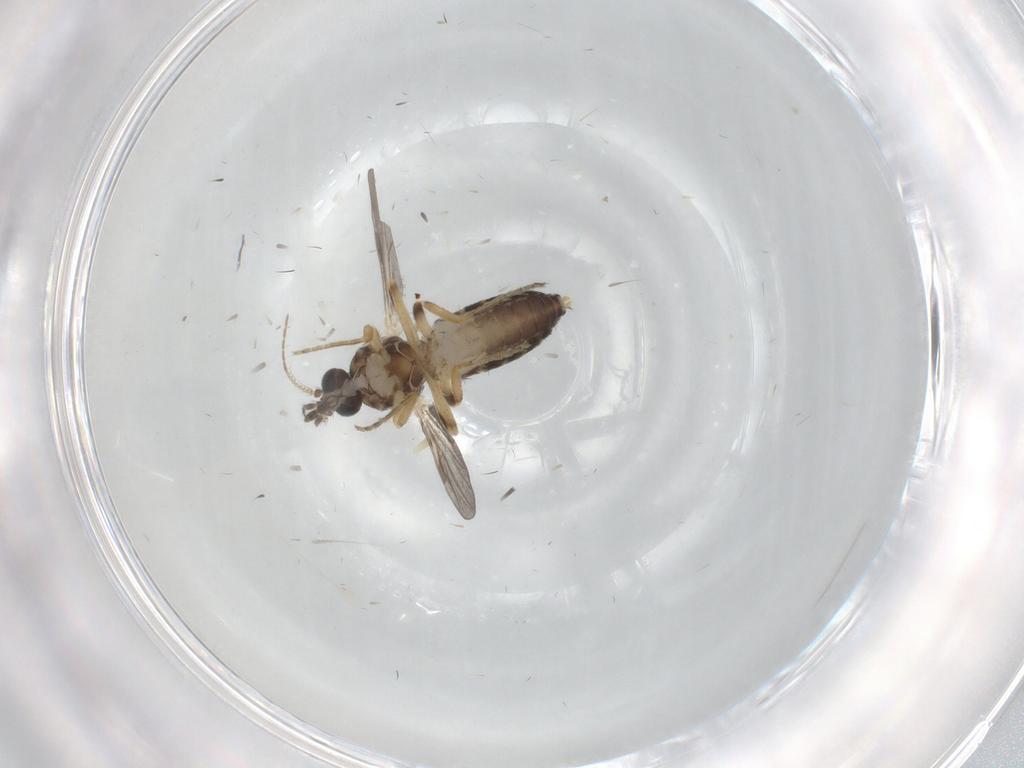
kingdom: Animalia
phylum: Arthropoda
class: Insecta
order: Diptera
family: Ceratopogonidae
